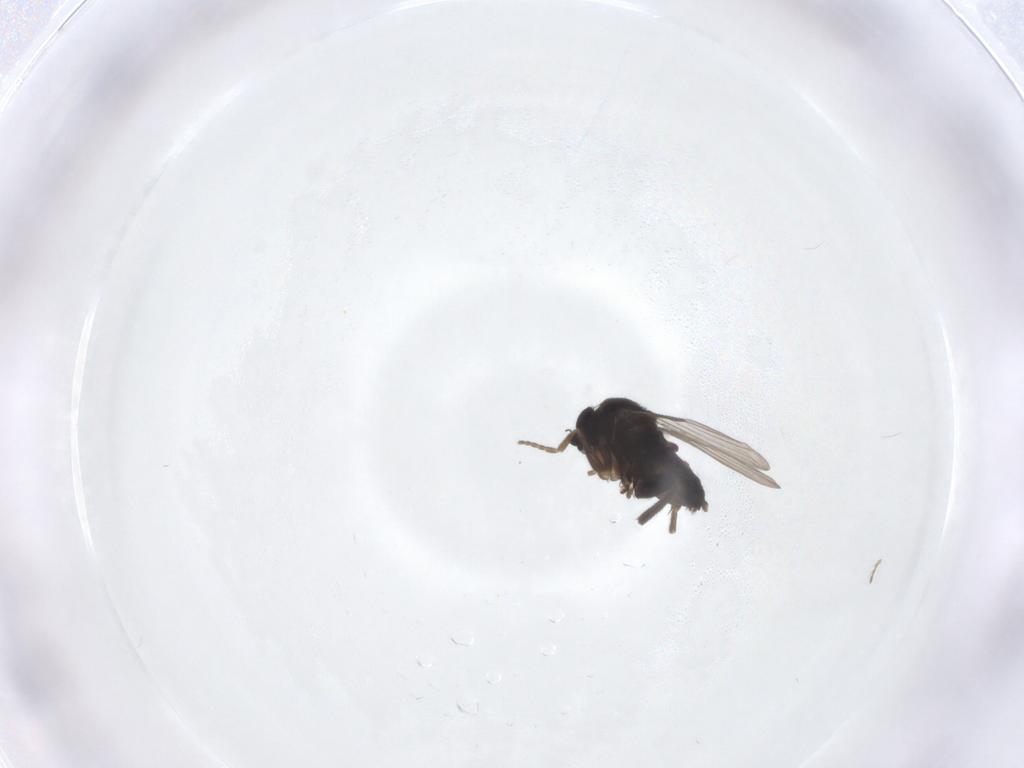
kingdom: Animalia
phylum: Arthropoda
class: Insecta
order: Diptera
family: Phoridae
